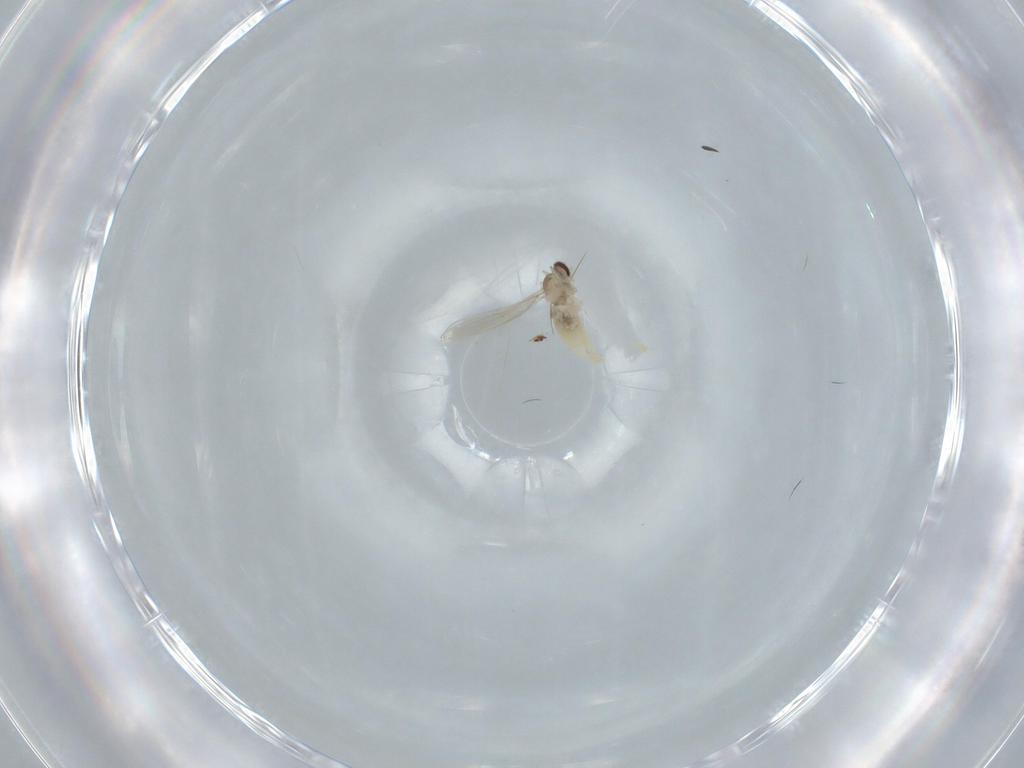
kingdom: Animalia
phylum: Arthropoda
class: Insecta
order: Diptera
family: Cecidomyiidae
